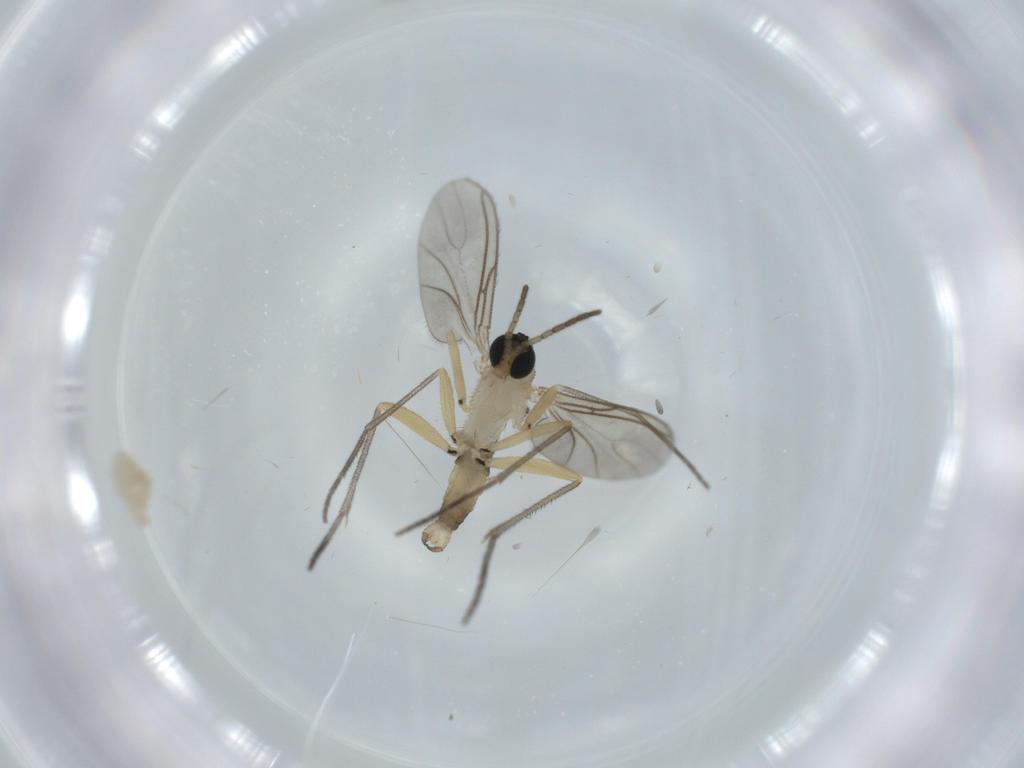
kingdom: Animalia
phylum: Arthropoda
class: Insecta
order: Diptera
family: Sciaridae
